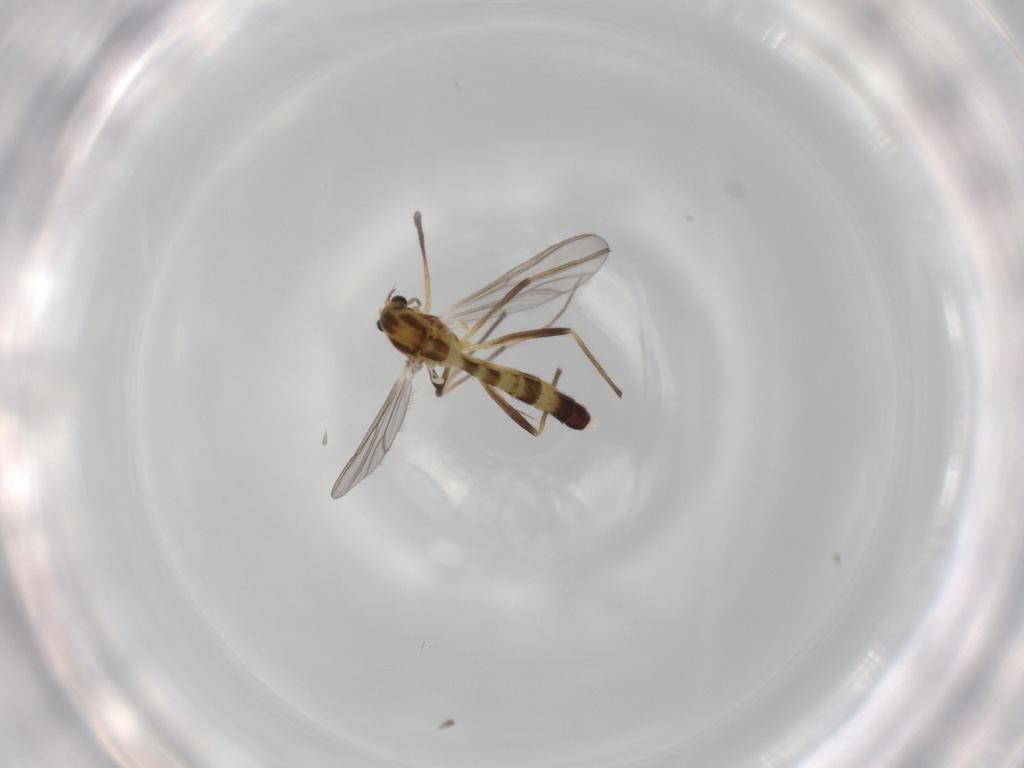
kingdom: Animalia
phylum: Arthropoda
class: Insecta
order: Diptera
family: Chironomidae
